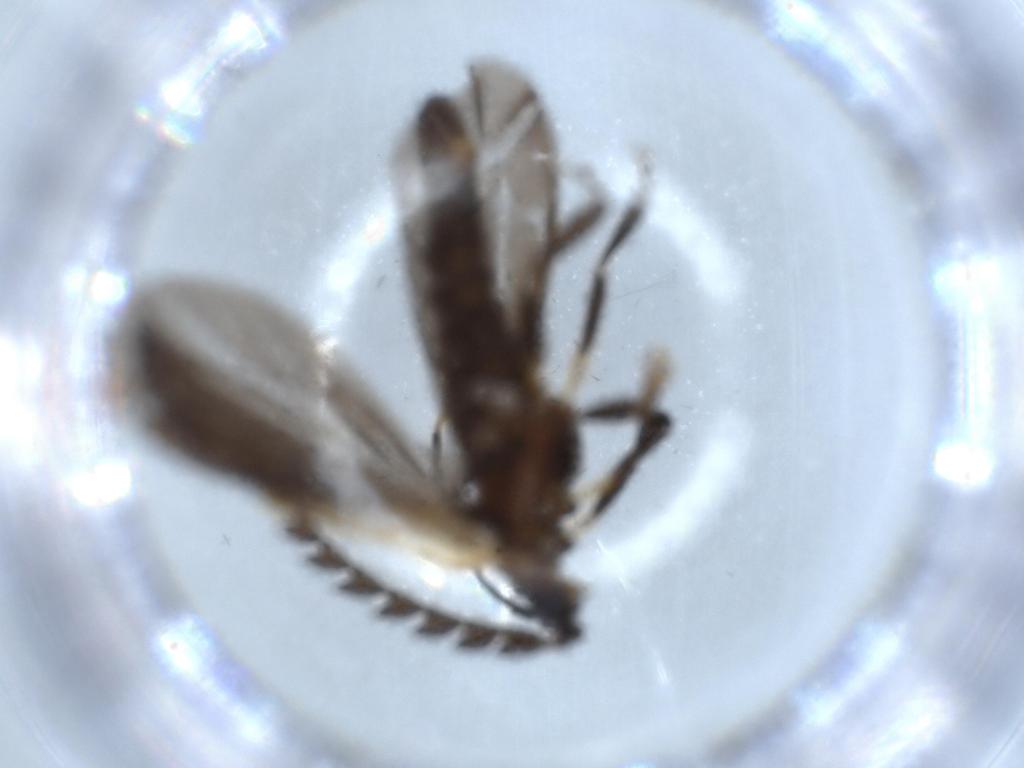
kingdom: Animalia
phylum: Arthropoda
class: Insecta
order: Coleoptera
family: Lycidae
